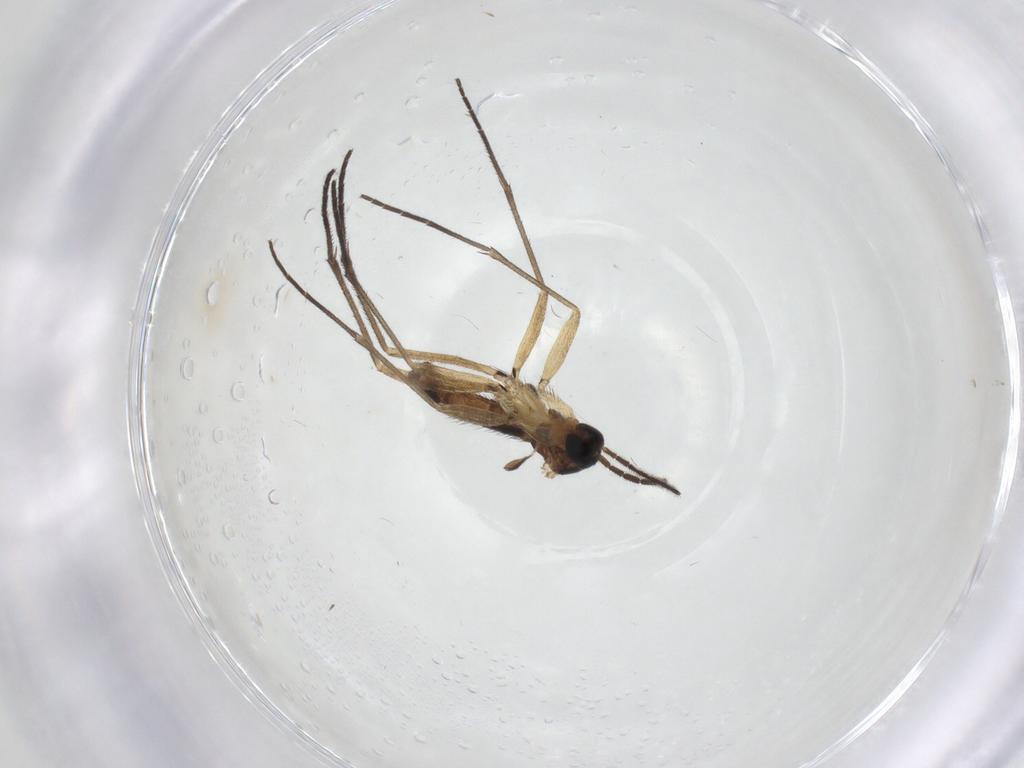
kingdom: Animalia
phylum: Arthropoda
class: Insecta
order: Diptera
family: Sciaridae
